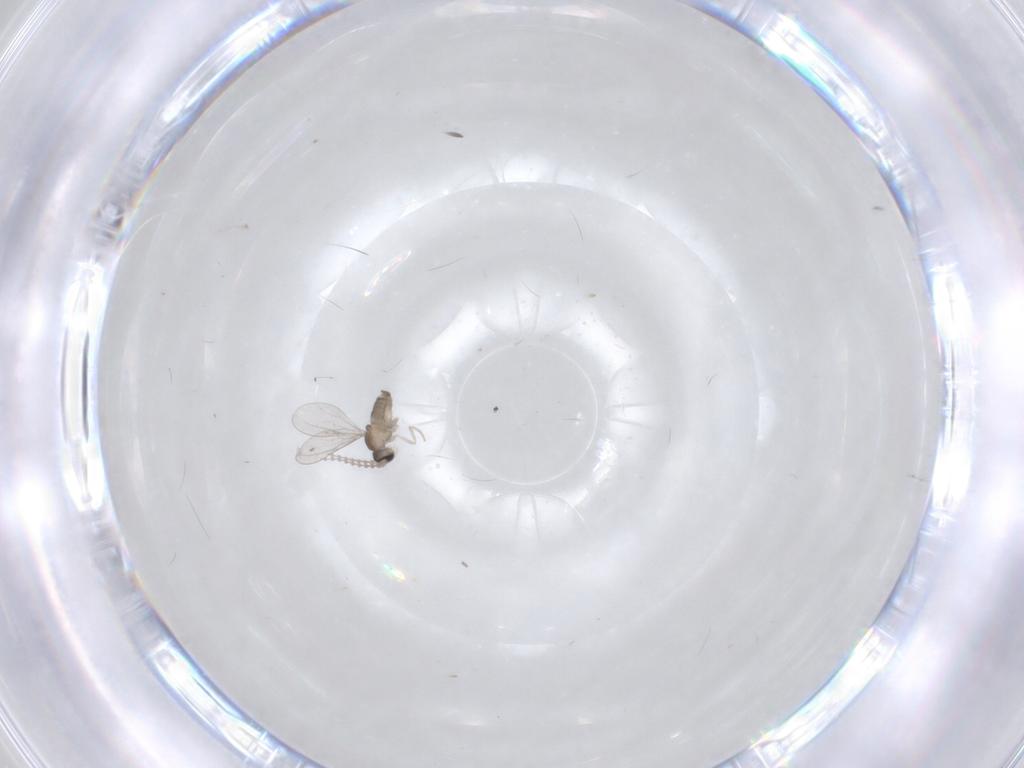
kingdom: Animalia
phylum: Arthropoda
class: Insecta
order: Diptera
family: Cecidomyiidae
